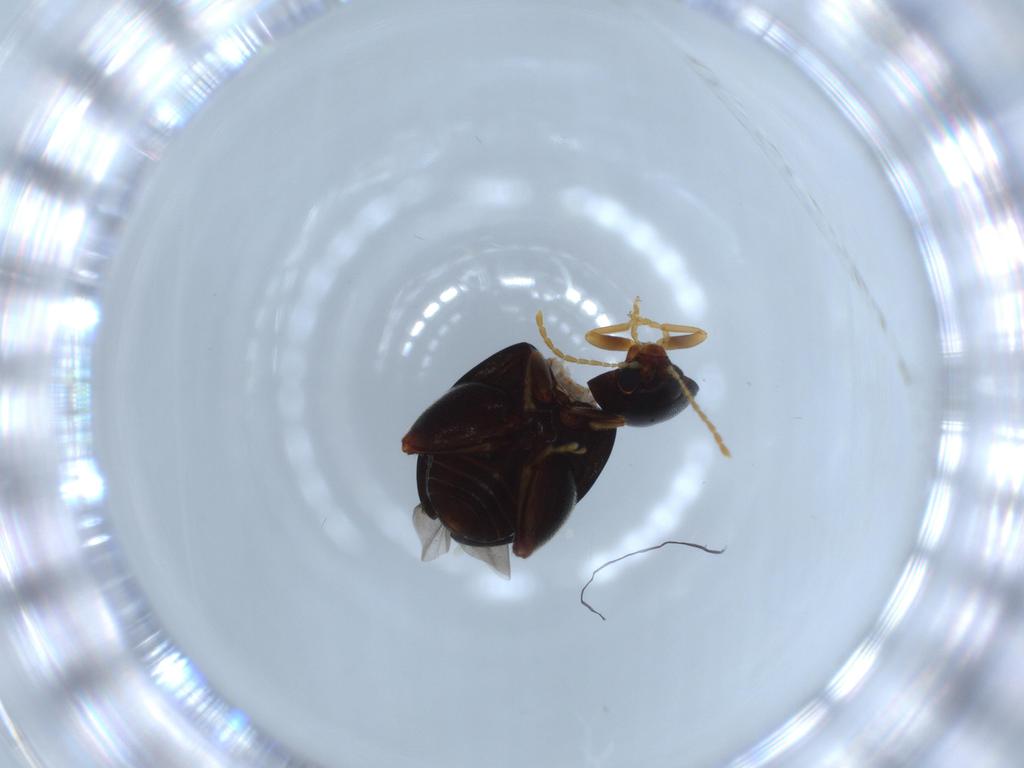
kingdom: Animalia
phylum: Arthropoda
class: Insecta
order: Coleoptera
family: Chrysomelidae
